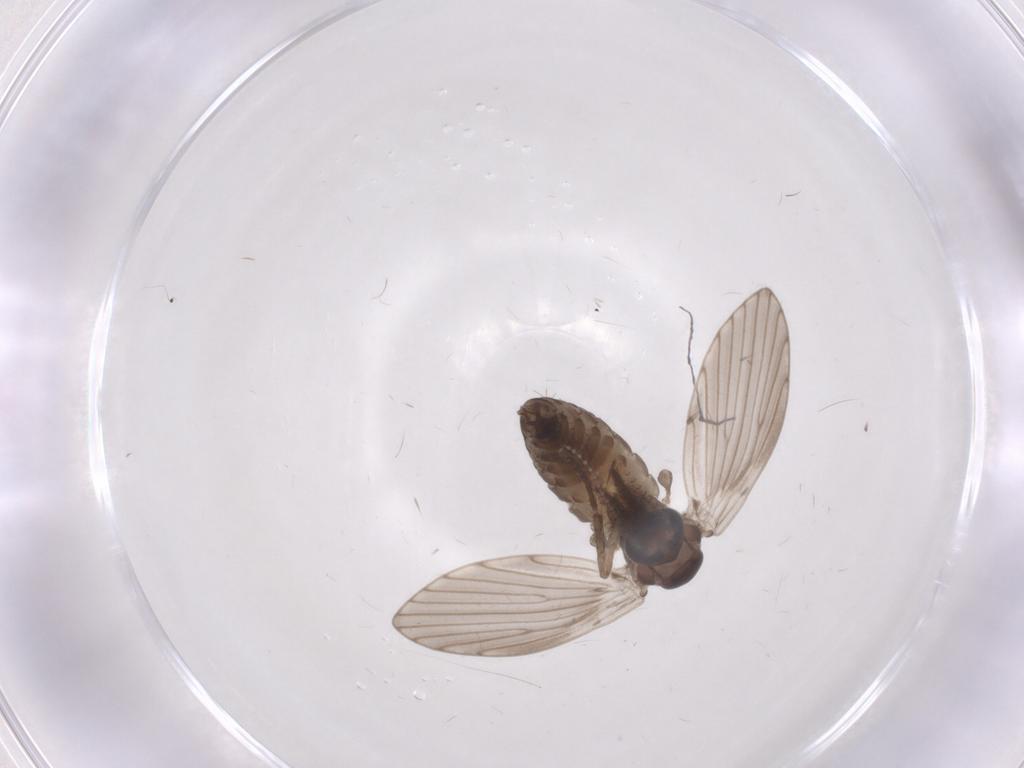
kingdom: Animalia
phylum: Arthropoda
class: Insecta
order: Diptera
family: Psychodidae
